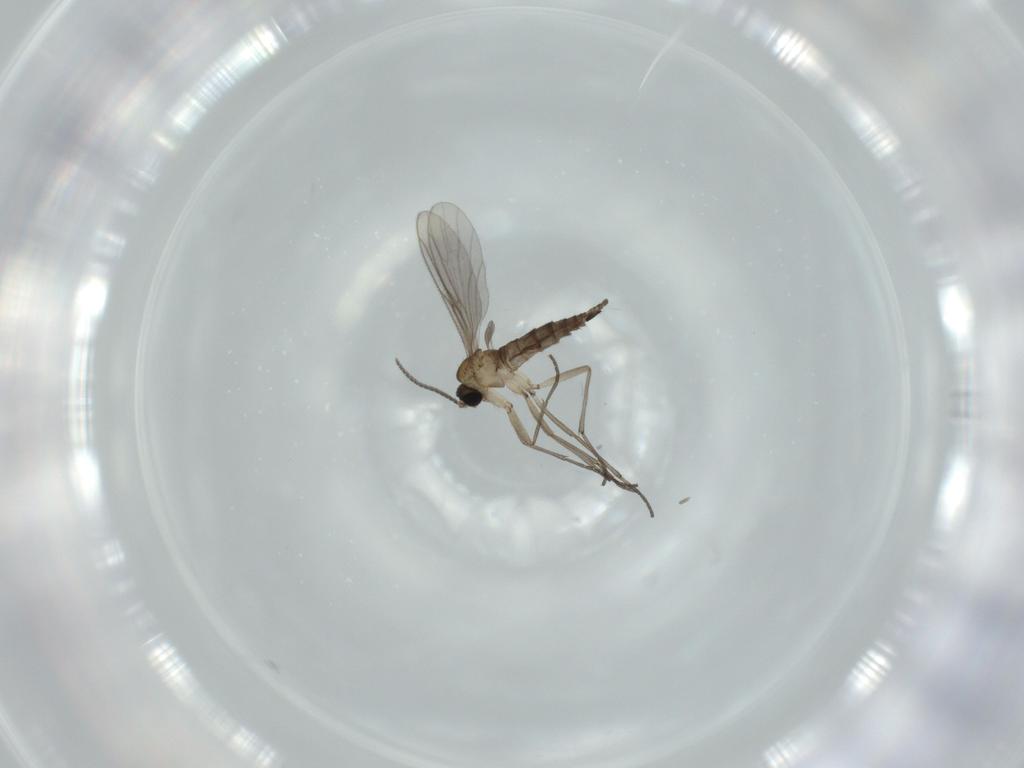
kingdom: Animalia
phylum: Arthropoda
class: Insecta
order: Diptera
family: Sciaridae
